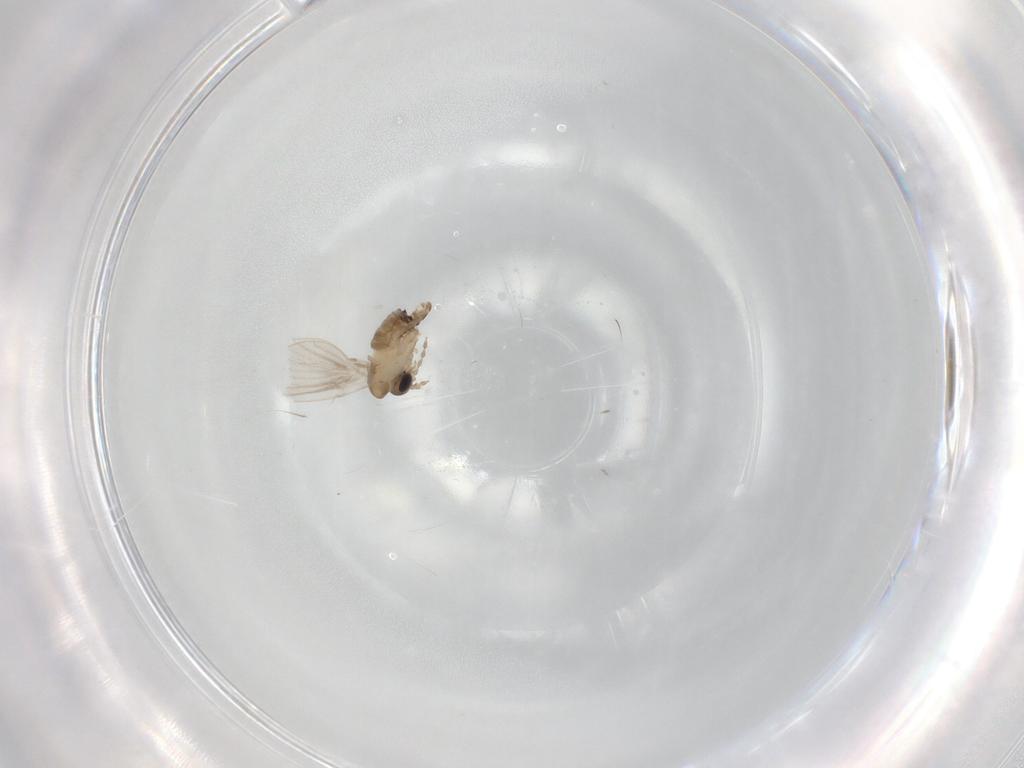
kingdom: Animalia
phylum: Arthropoda
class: Insecta
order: Diptera
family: Psychodidae
